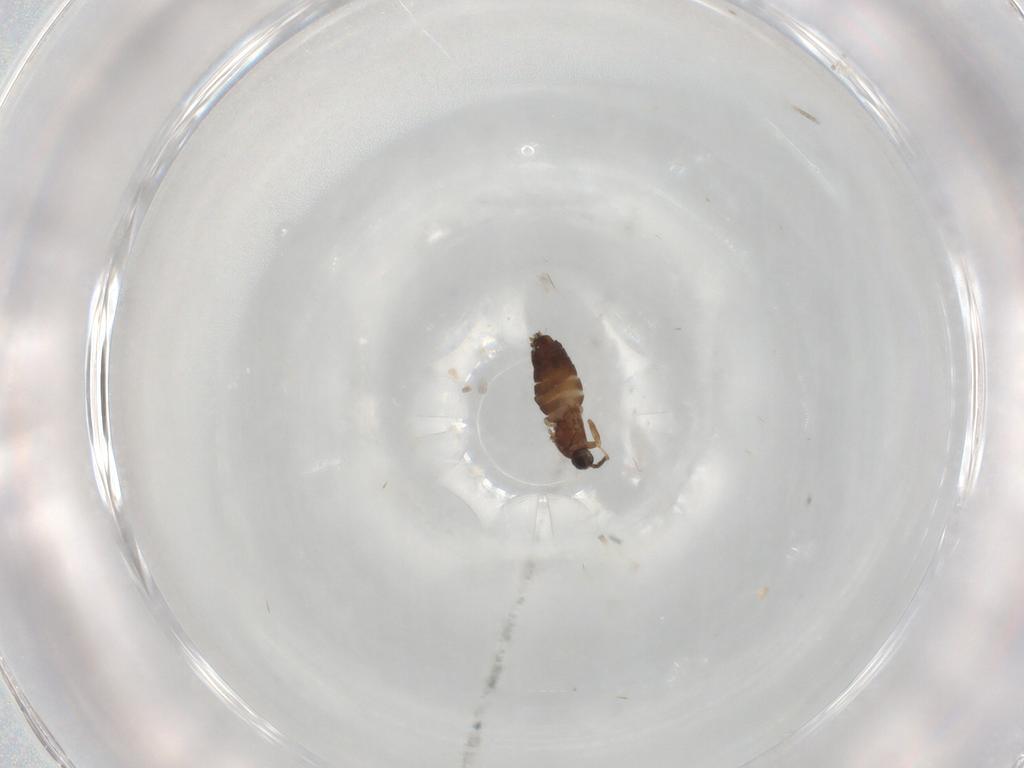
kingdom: Animalia
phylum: Arthropoda
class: Insecta
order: Diptera
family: Scatopsidae
